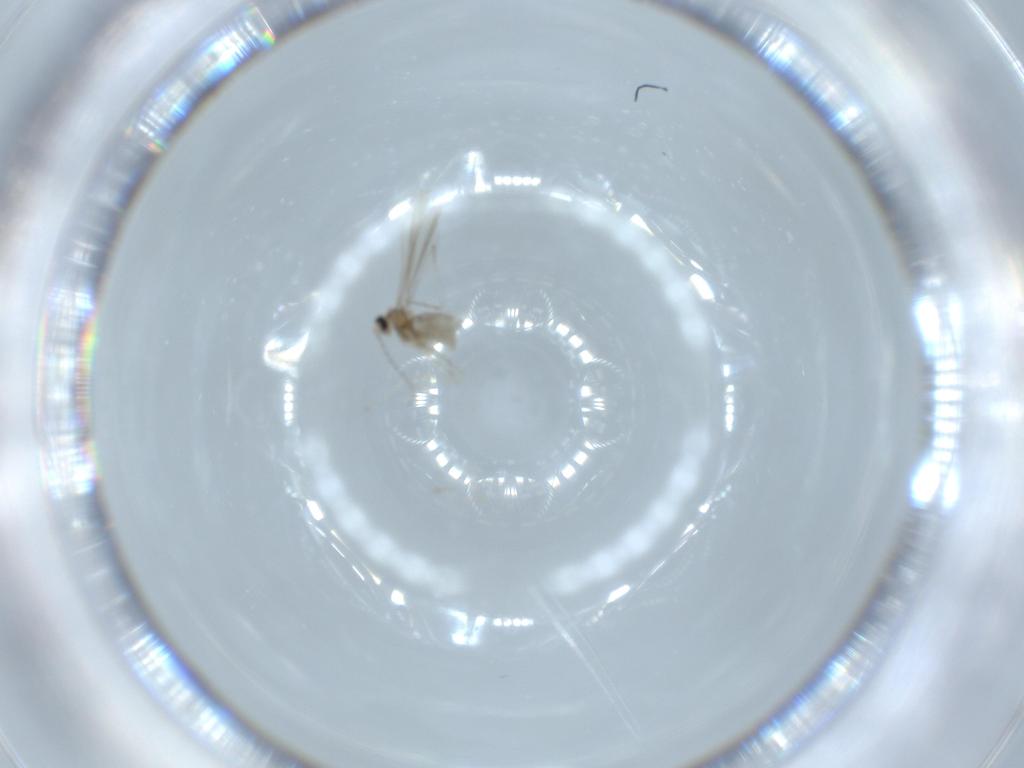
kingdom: Animalia
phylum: Arthropoda
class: Insecta
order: Diptera
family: Cecidomyiidae
